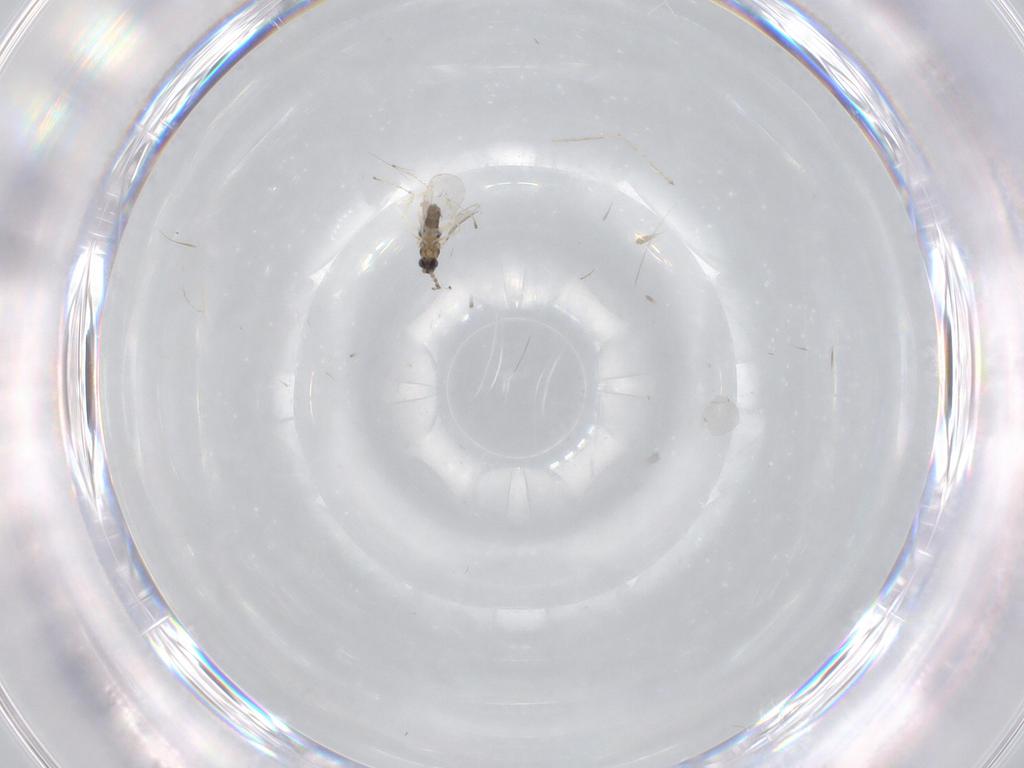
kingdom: Animalia
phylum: Arthropoda
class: Insecta
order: Diptera
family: Cecidomyiidae
